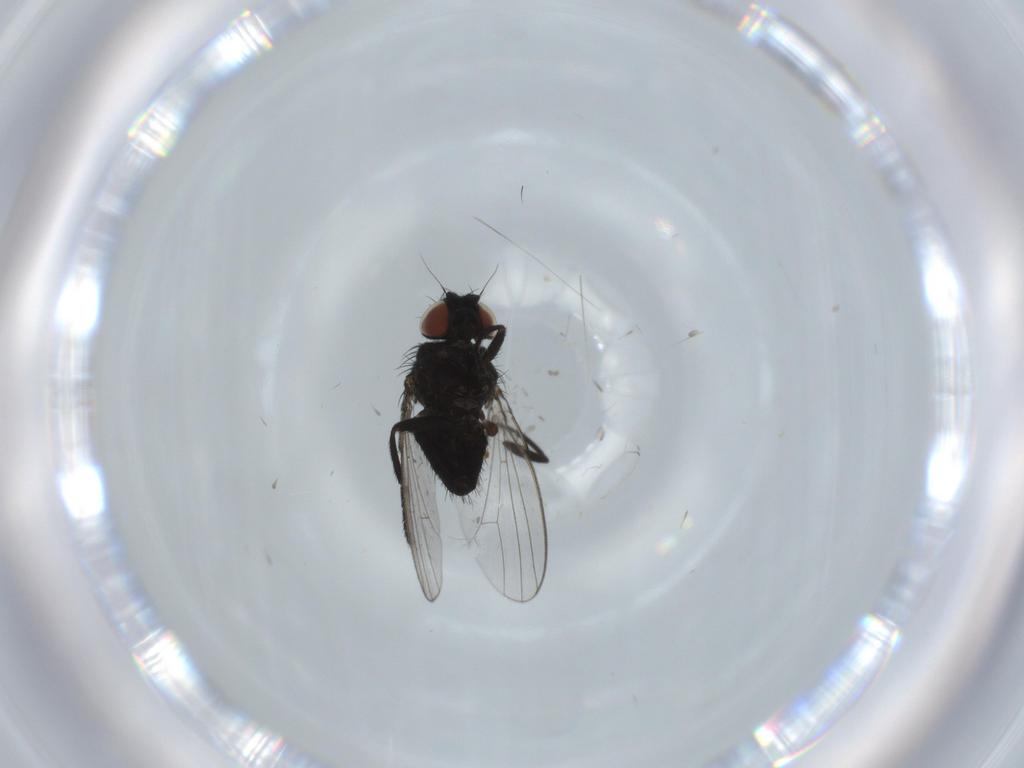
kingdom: Animalia
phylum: Arthropoda
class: Insecta
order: Diptera
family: Milichiidae
